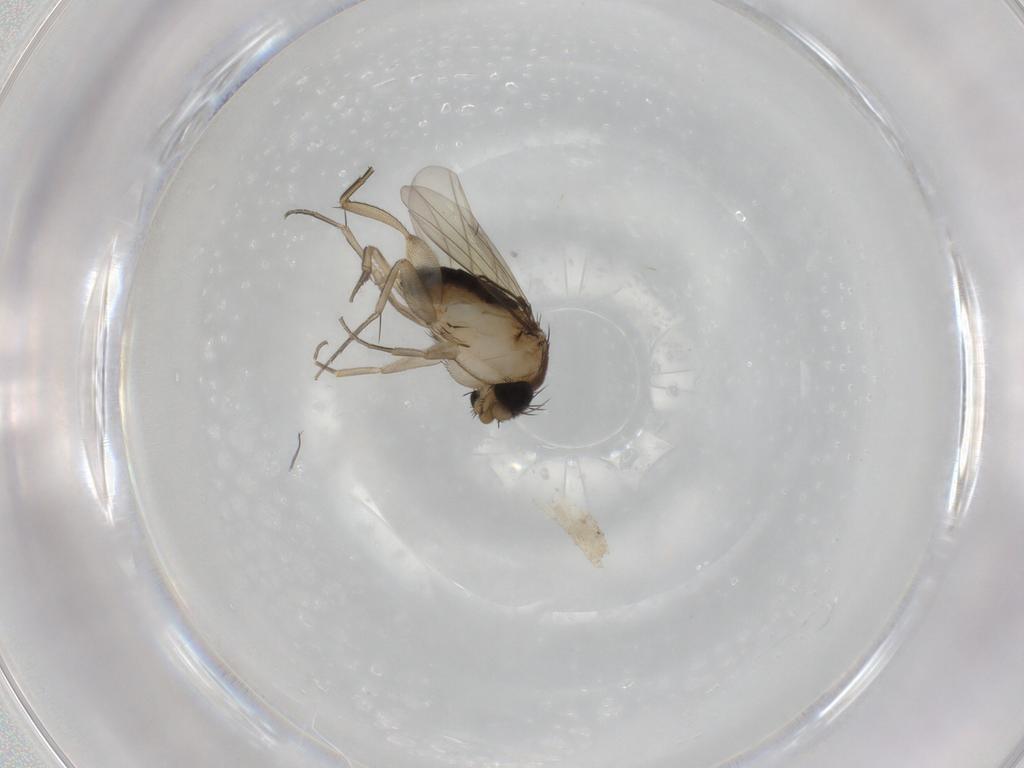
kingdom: Animalia
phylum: Arthropoda
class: Insecta
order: Diptera
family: Phoridae
